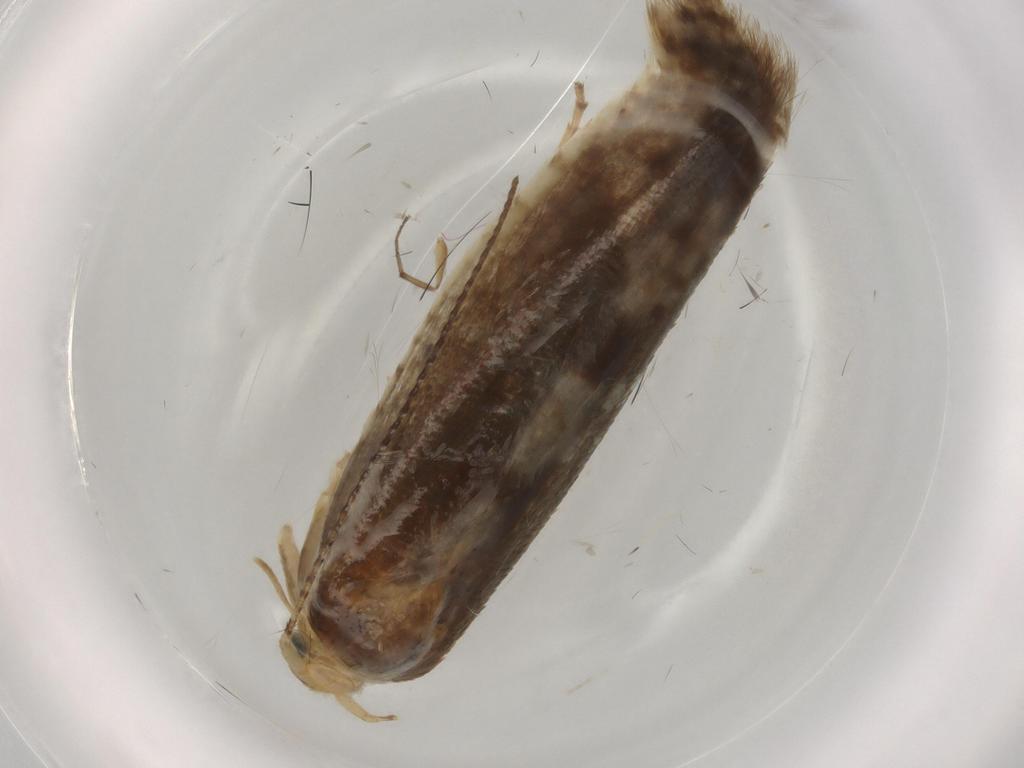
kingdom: Animalia
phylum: Arthropoda
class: Insecta
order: Lepidoptera
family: Argyresthiidae
